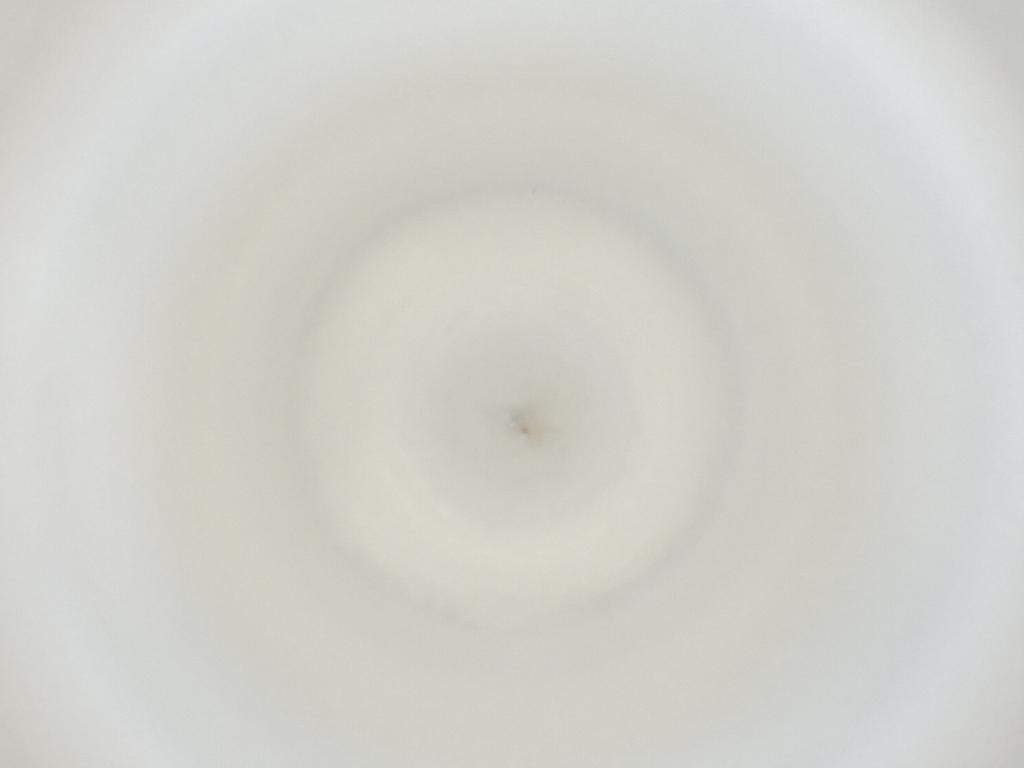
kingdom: Animalia
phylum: Arthropoda
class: Insecta
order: Diptera
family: Cecidomyiidae
